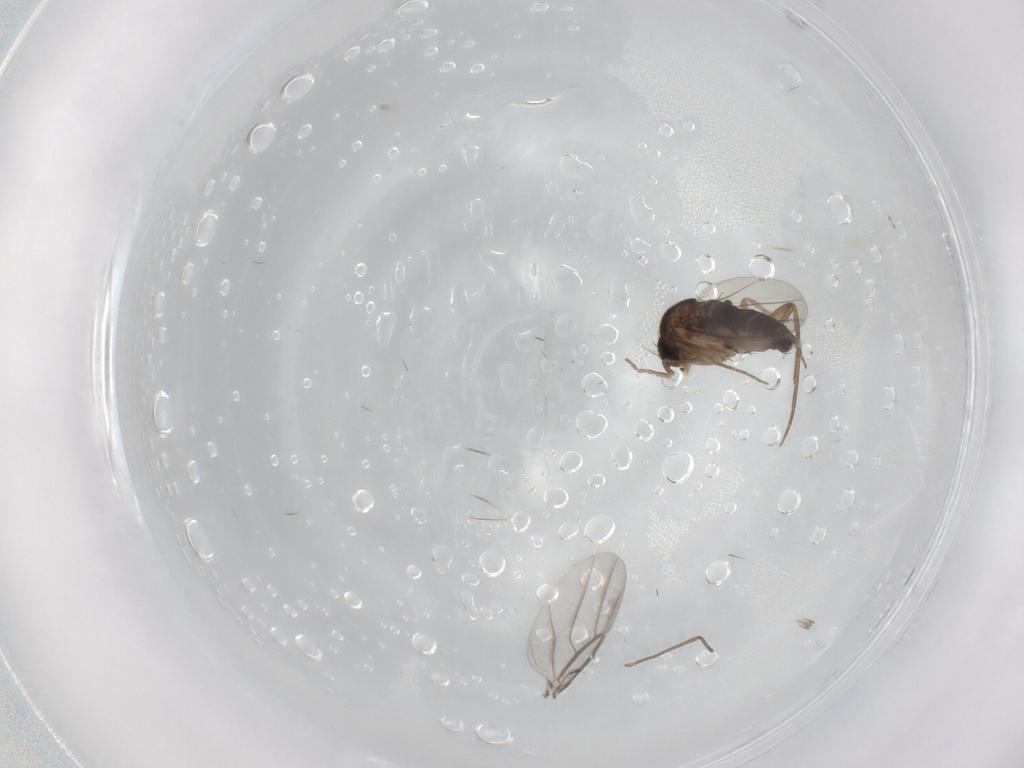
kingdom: Animalia
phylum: Arthropoda
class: Insecta
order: Diptera
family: Phoridae
